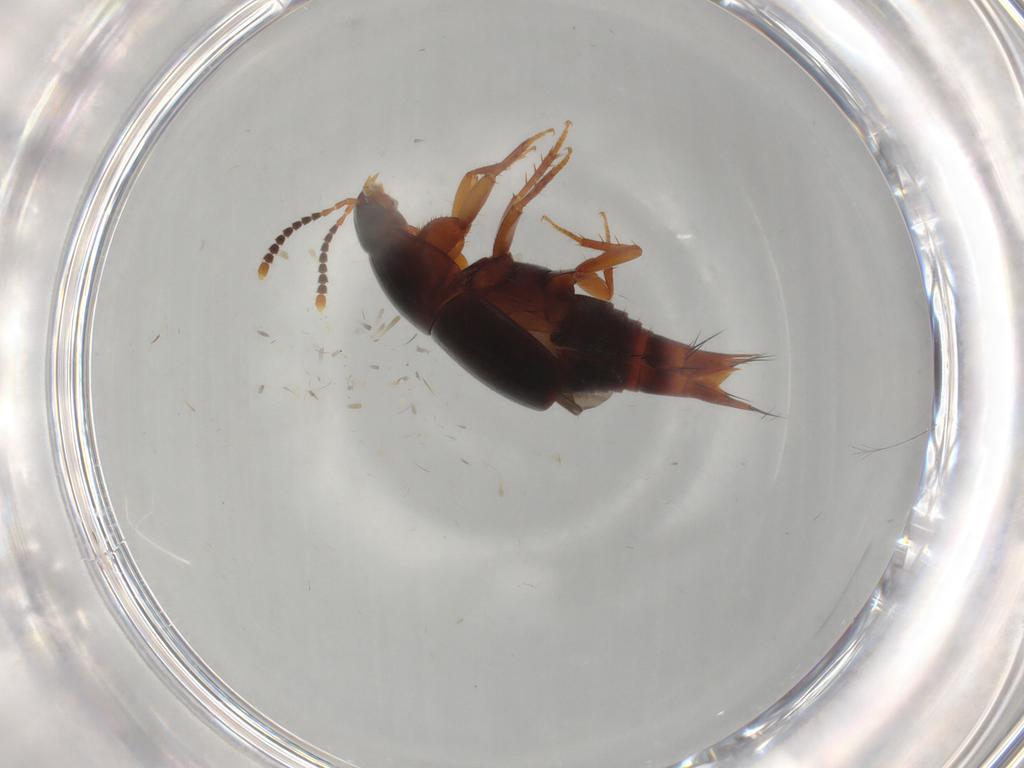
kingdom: Animalia
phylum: Arthropoda
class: Insecta
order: Coleoptera
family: Staphylinidae
